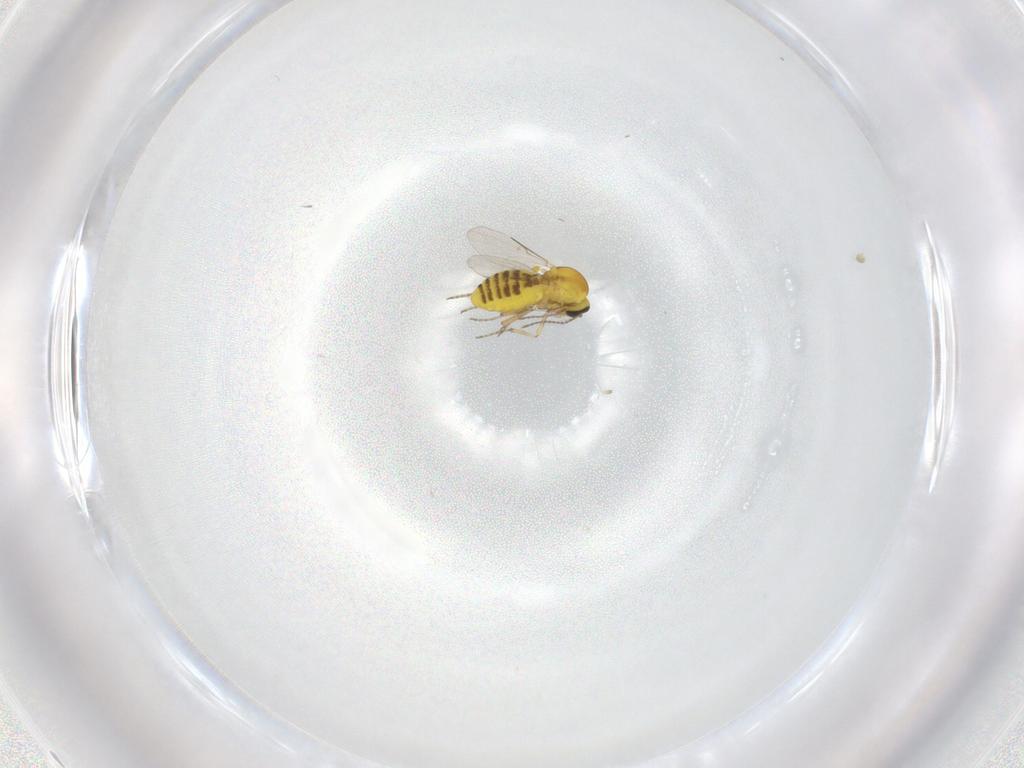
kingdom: Animalia
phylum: Arthropoda
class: Insecta
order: Diptera
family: Ceratopogonidae
